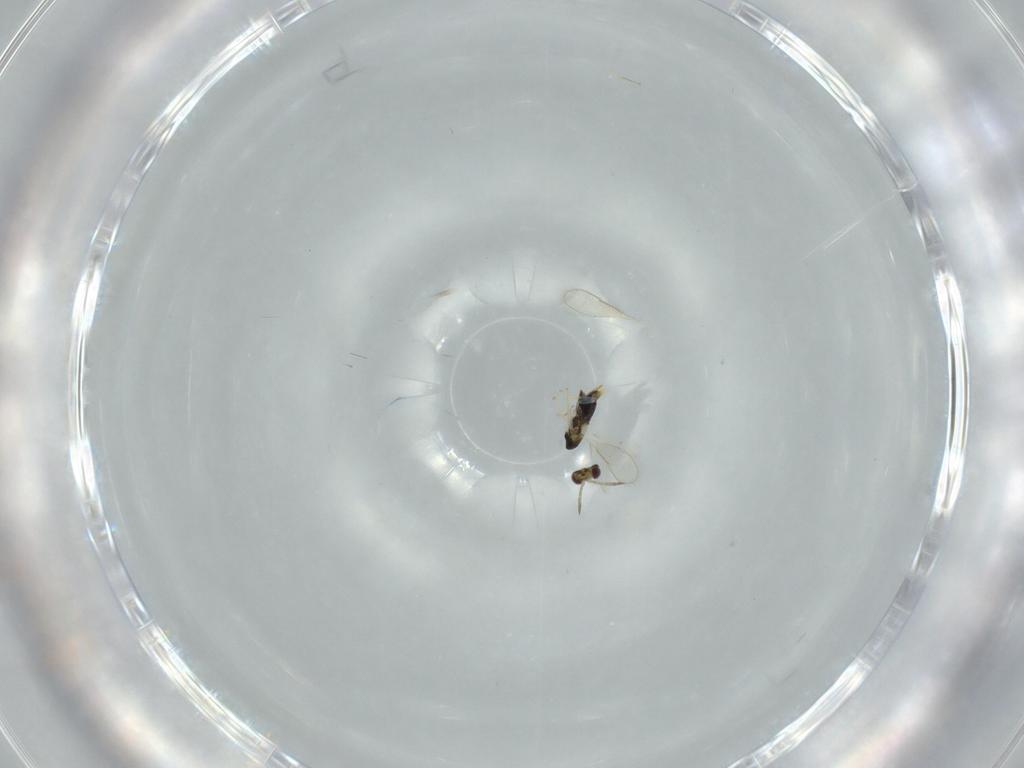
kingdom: Animalia
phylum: Arthropoda
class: Insecta
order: Hymenoptera
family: Aphelinidae
